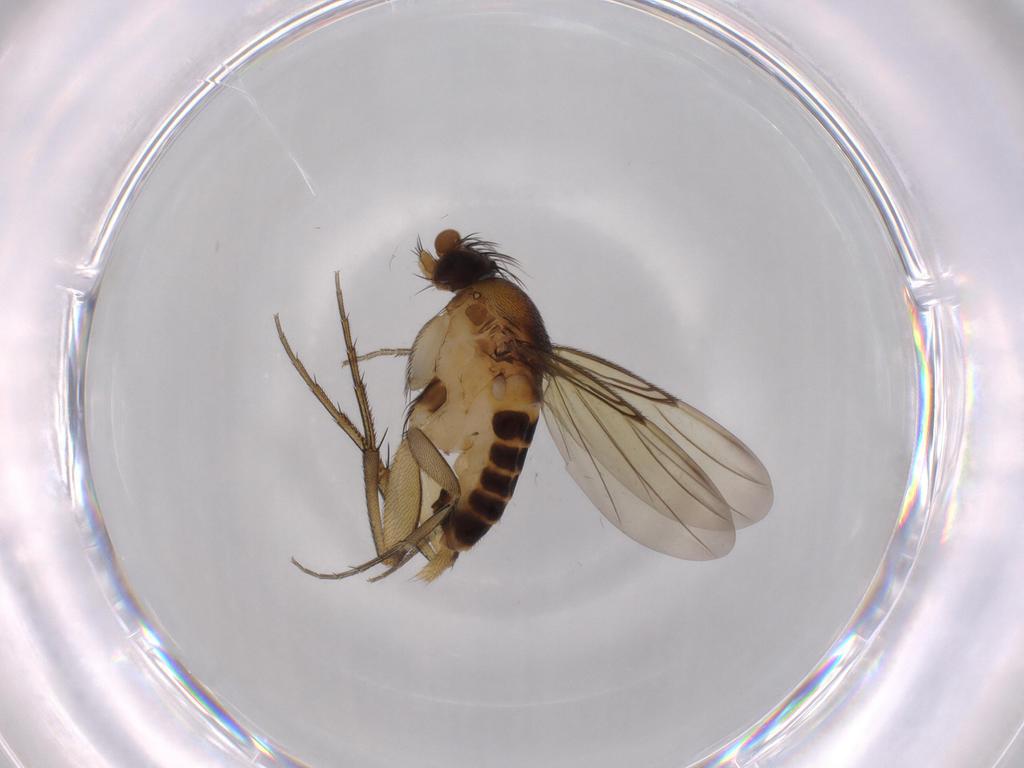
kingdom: Animalia
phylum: Arthropoda
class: Insecta
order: Diptera
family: Phoridae
